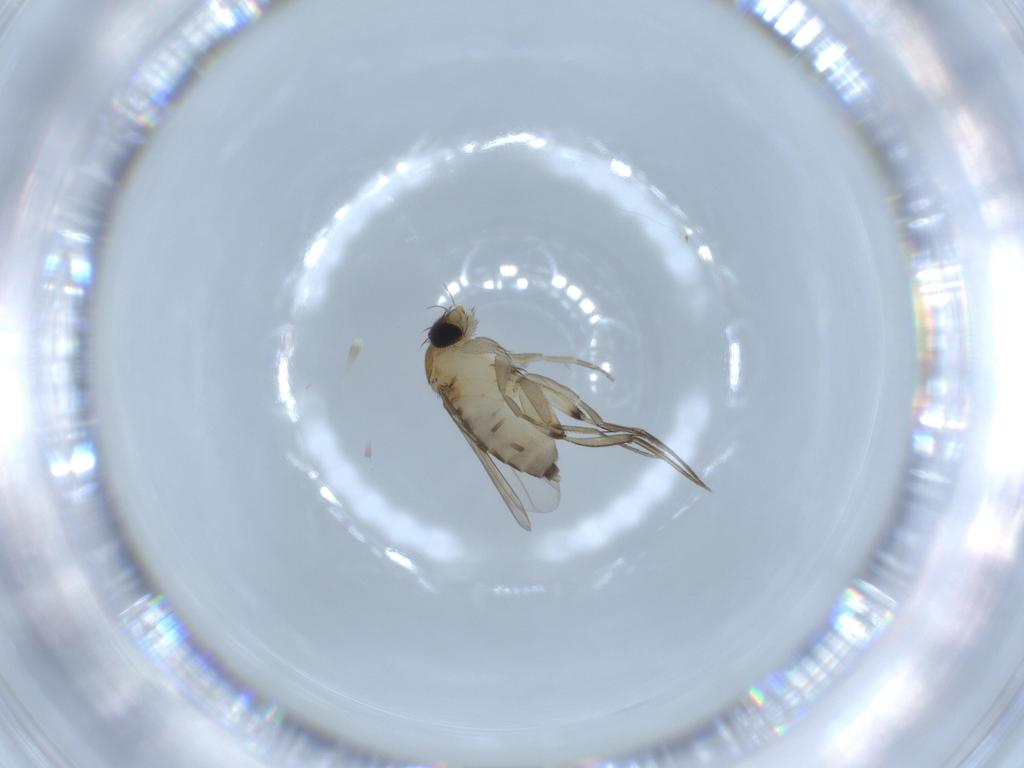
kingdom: Animalia
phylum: Arthropoda
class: Insecta
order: Diptera
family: Phoridae
